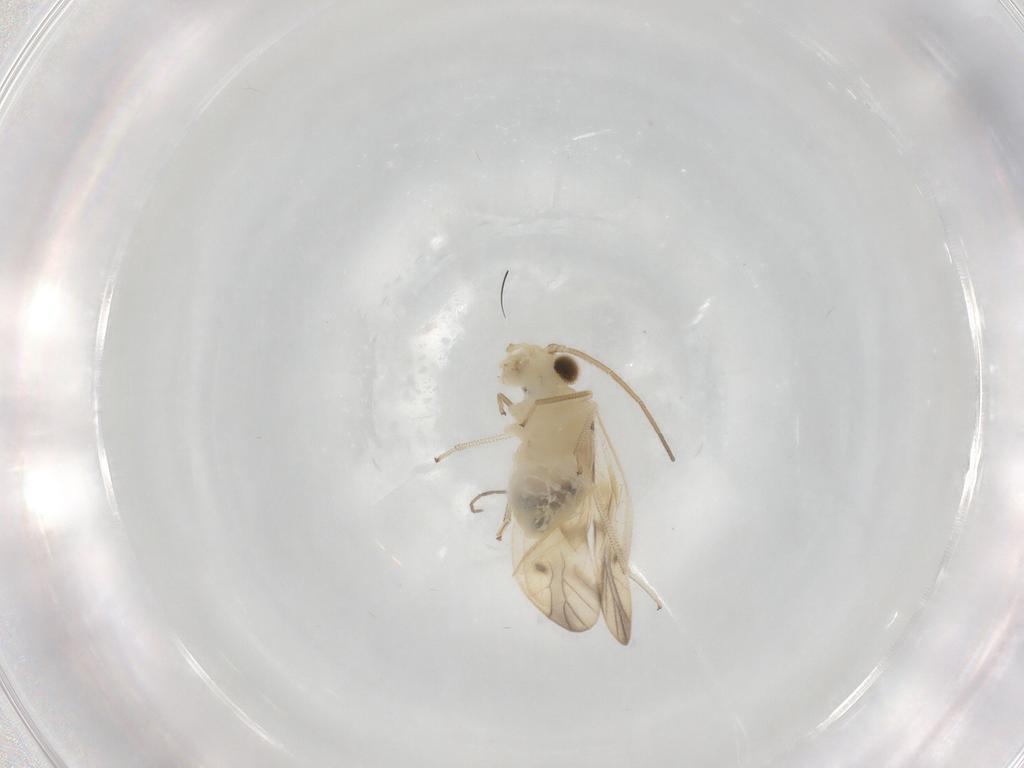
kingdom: Animalia
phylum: Arthropoda
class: Insecta
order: Psocodea
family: Caeciliusidae
